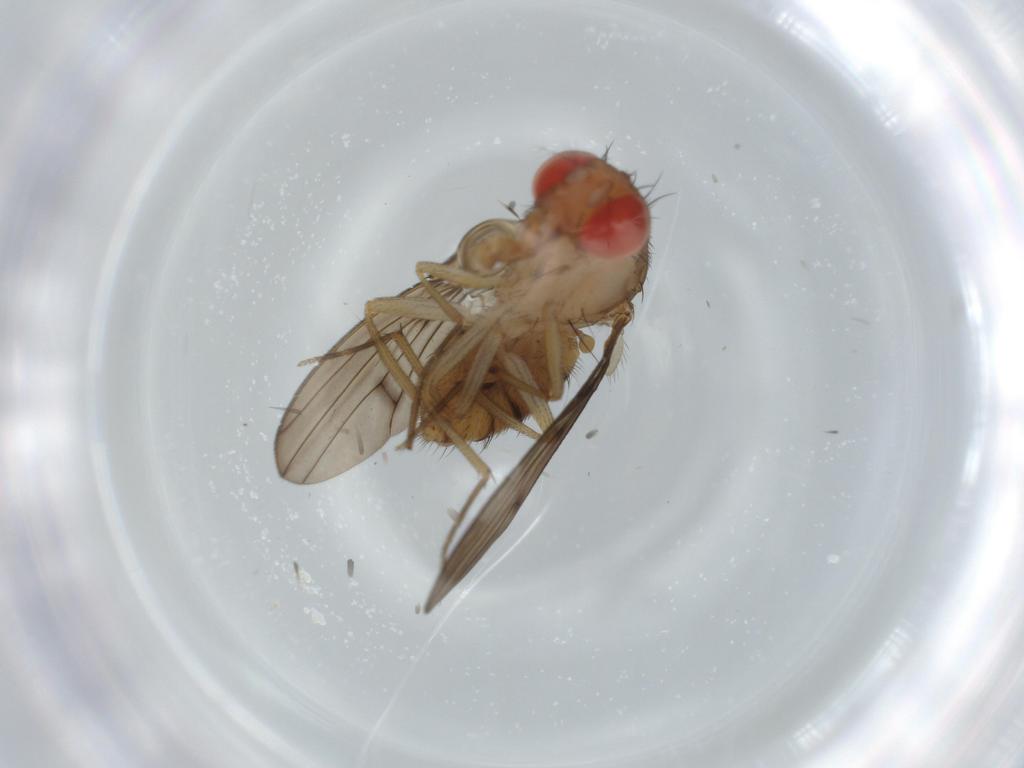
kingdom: Animalia
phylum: Arthropoda
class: Insecta
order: Diptera
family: Drosophilidae
